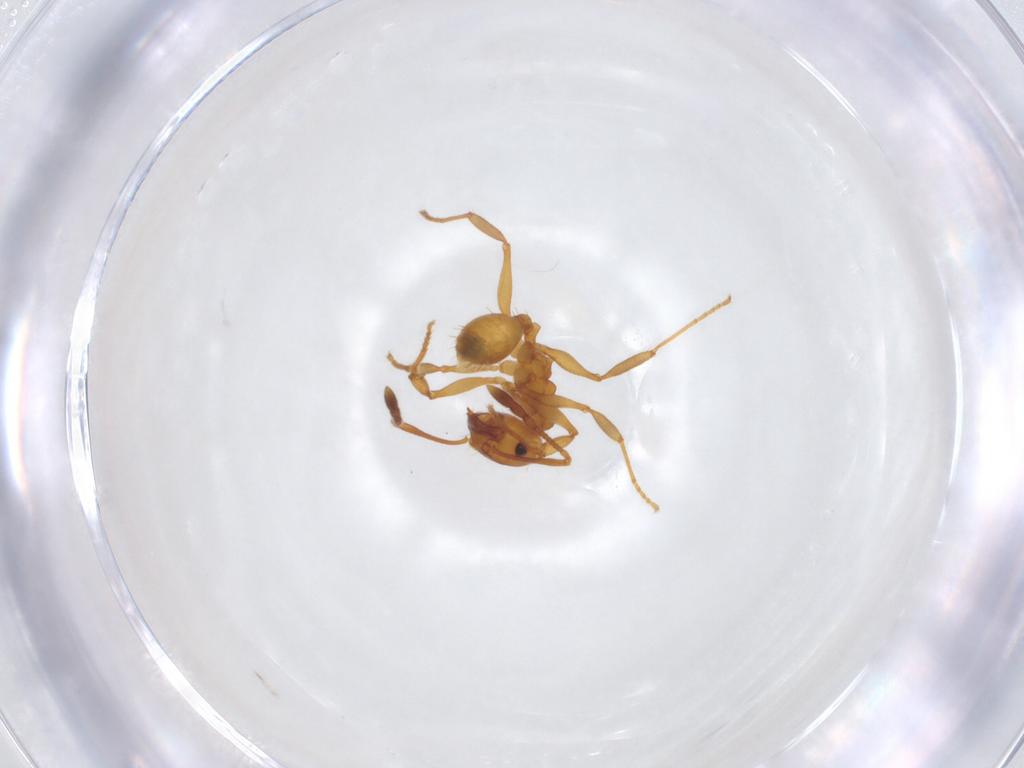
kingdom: Animalia
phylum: Arthropoda
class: Insecta
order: Hymenoptera
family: Formicidae
